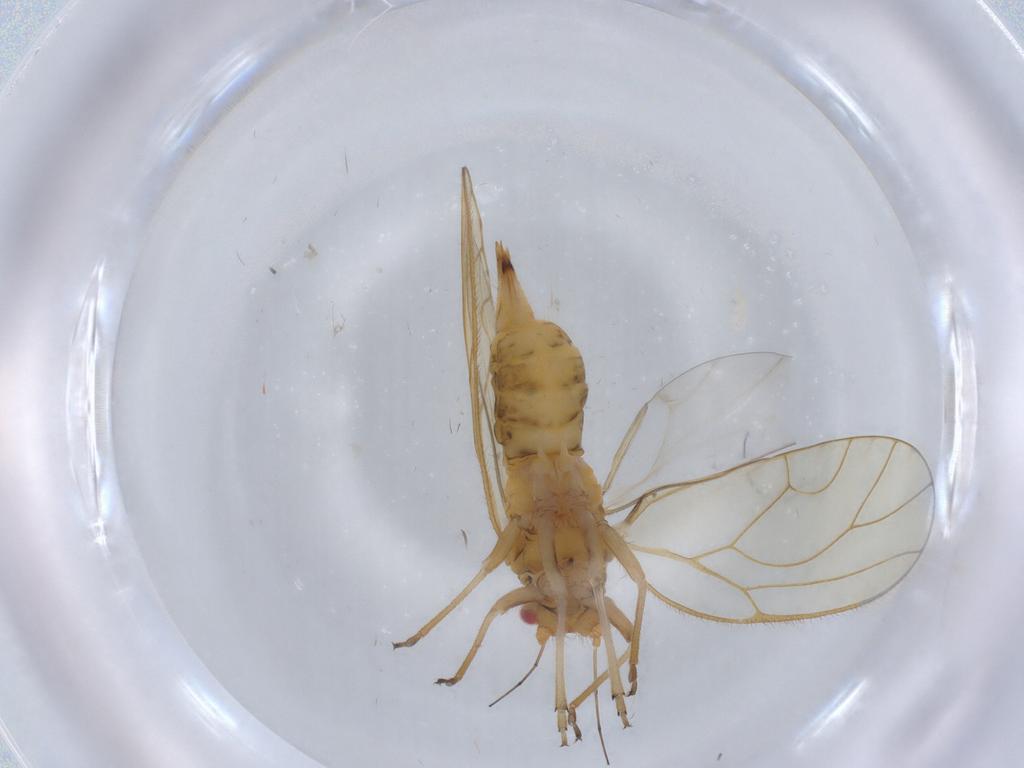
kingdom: Animalia
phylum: Arthropoda
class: Insecta
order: Hemiptera
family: Psyllidae
